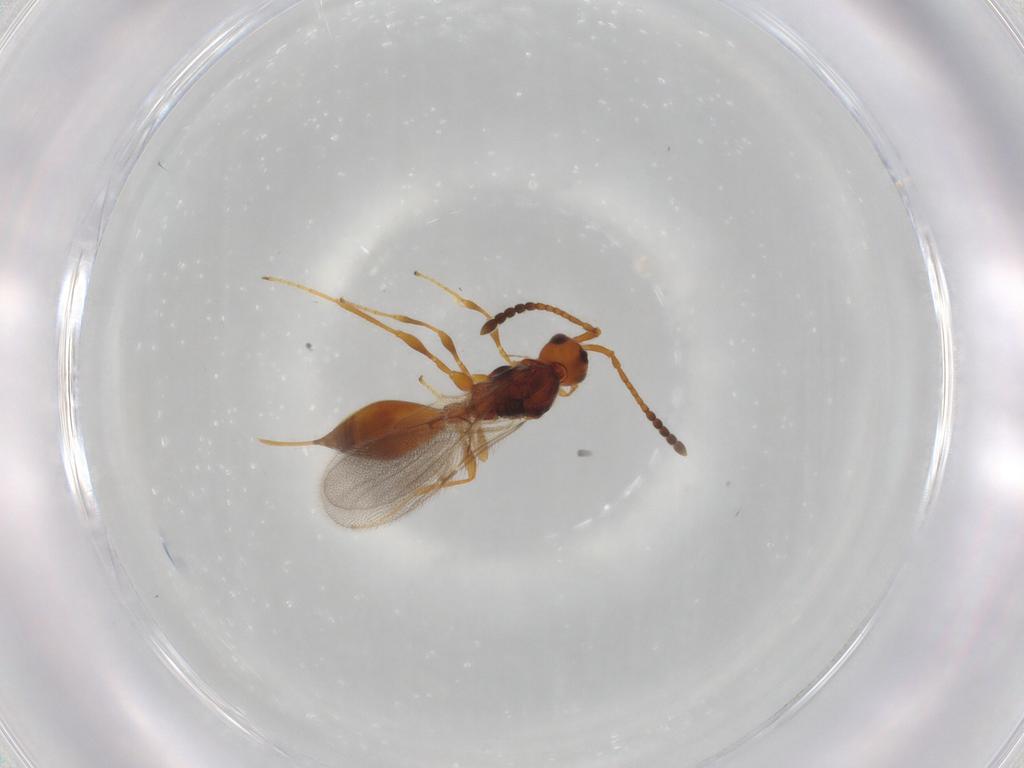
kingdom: Animalia
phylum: Arthropoda
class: Insecta
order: Hymenoptera
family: Diapriidae
